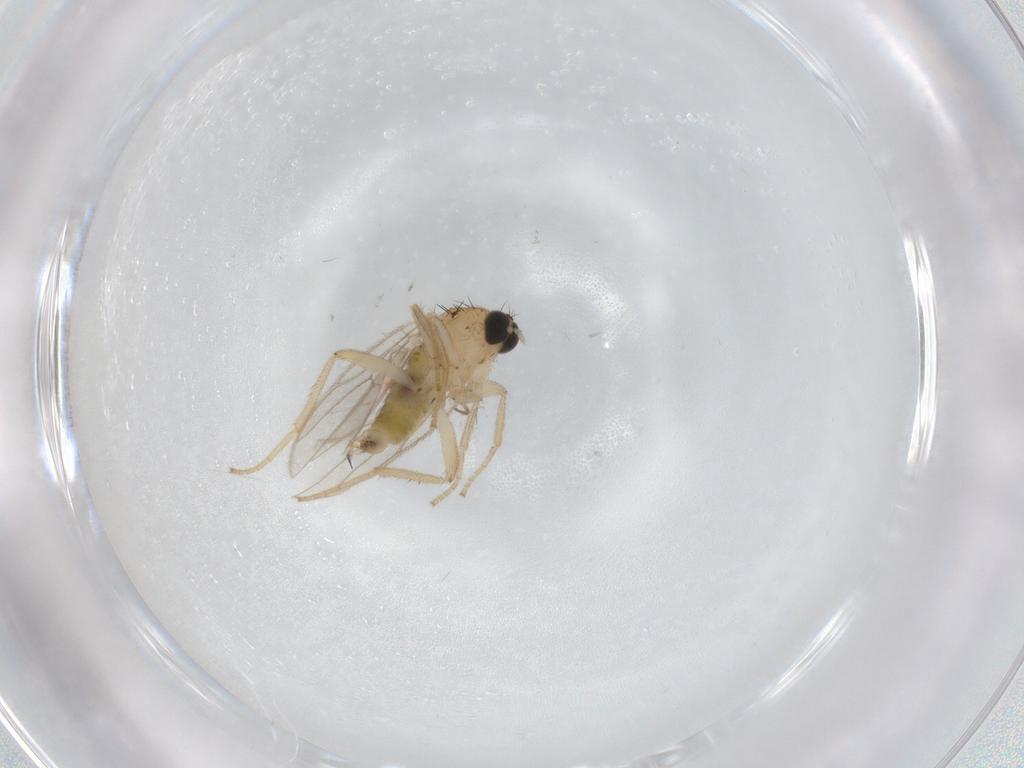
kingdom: Animalia
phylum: Arthropoda
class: Insecta
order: Diptera
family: Hybotidae
